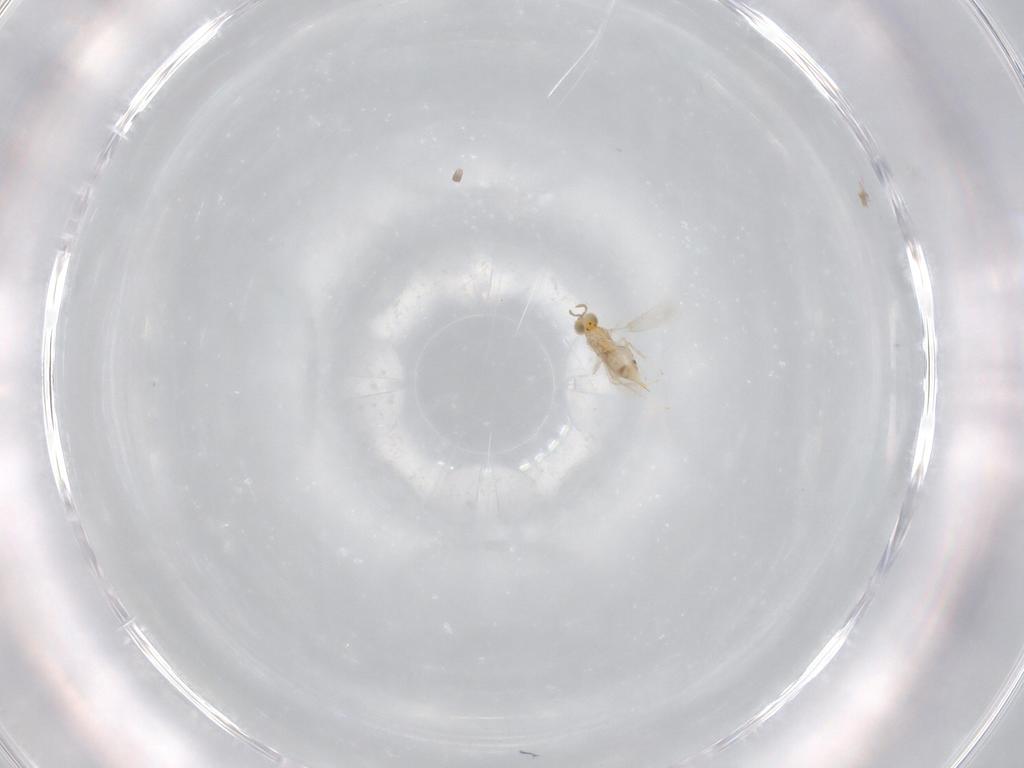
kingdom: Animalia
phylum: Arthropoda
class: Insecta
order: Hymenoptera
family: Aphelinidae
